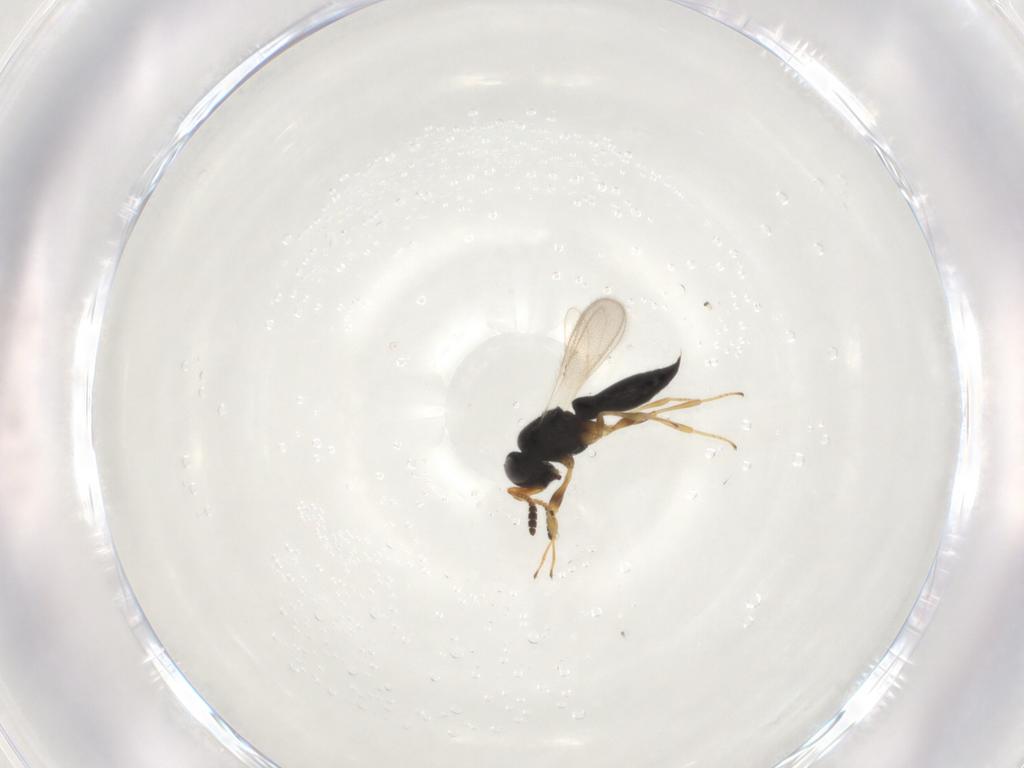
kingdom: Animalia
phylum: Arthropoda
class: Insecta
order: Hymenoptera
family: Scelionidae
